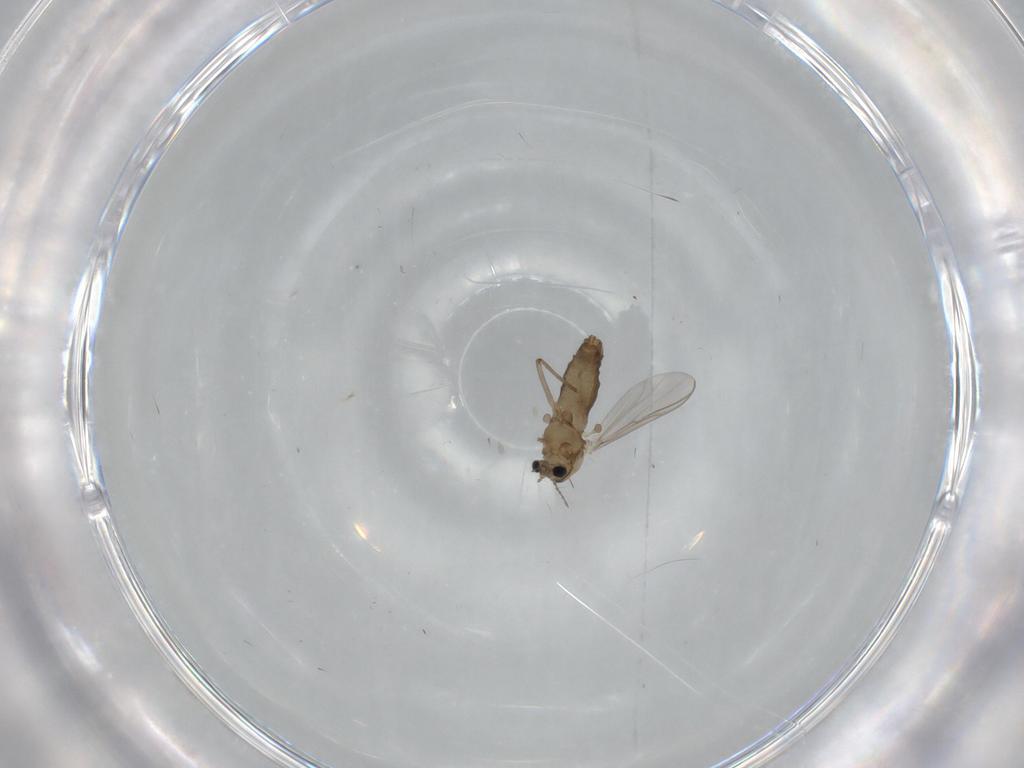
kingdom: Animalia
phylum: Arthropoda
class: Insecta
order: Diptera
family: Chironomidae
